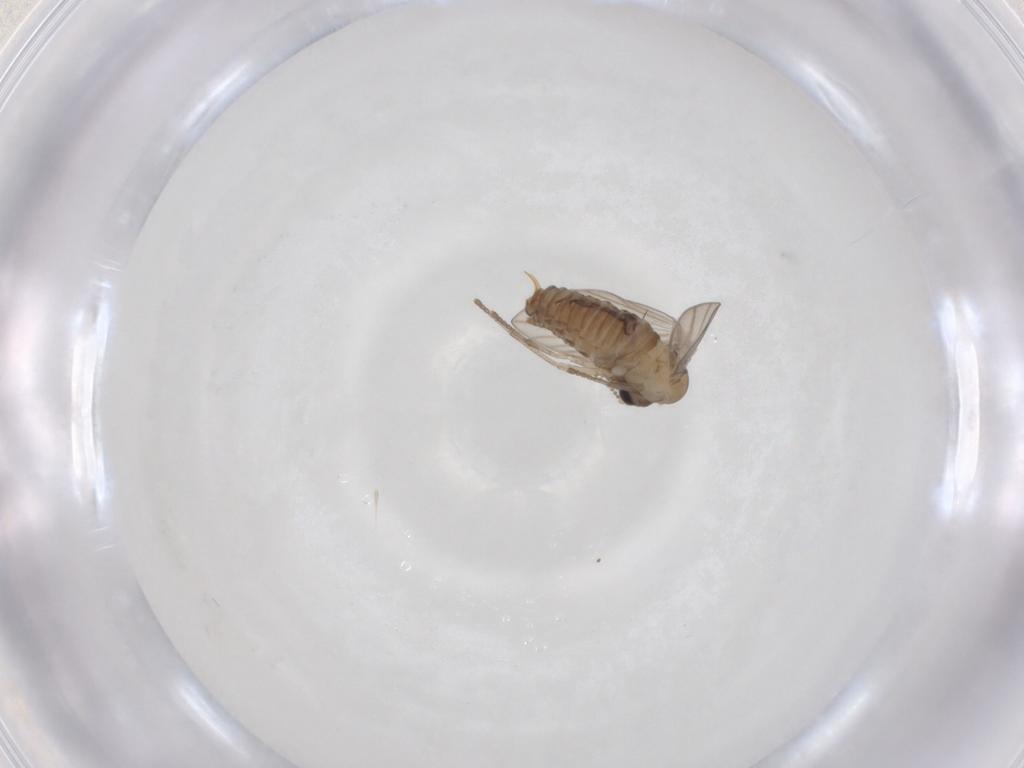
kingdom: Animalia
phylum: Arthropoda
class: Insecta
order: Diptera
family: Psychodidae
